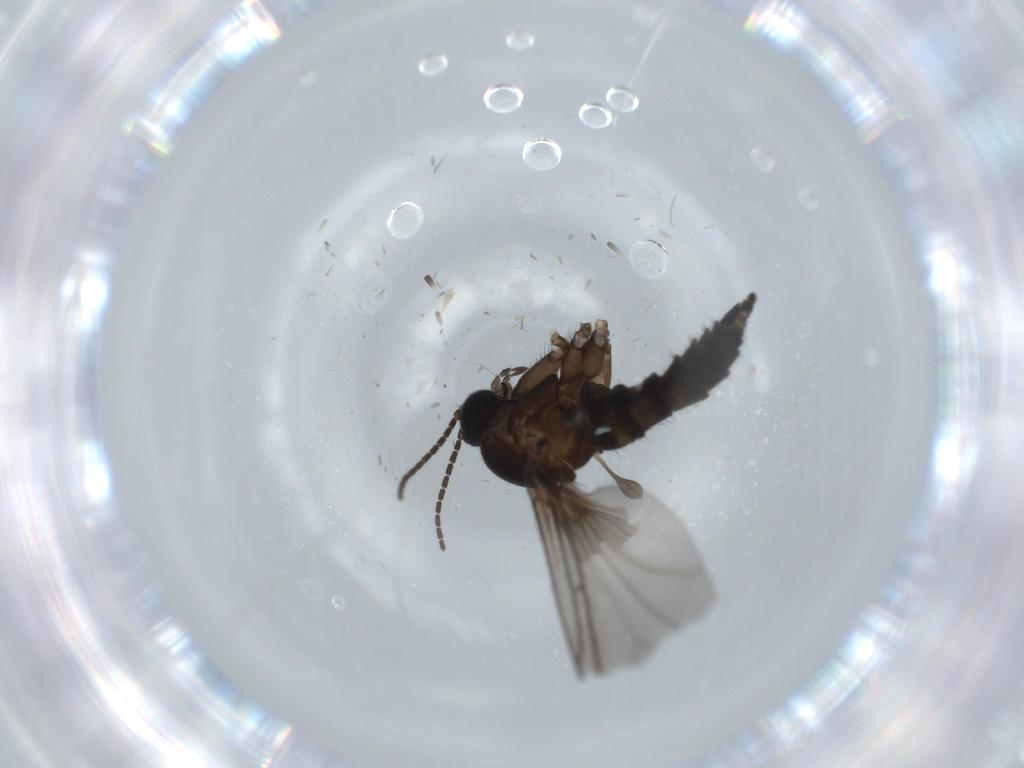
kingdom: Animalia
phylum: Arthropoda
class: Insecta
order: Diptera
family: Sciaridae
